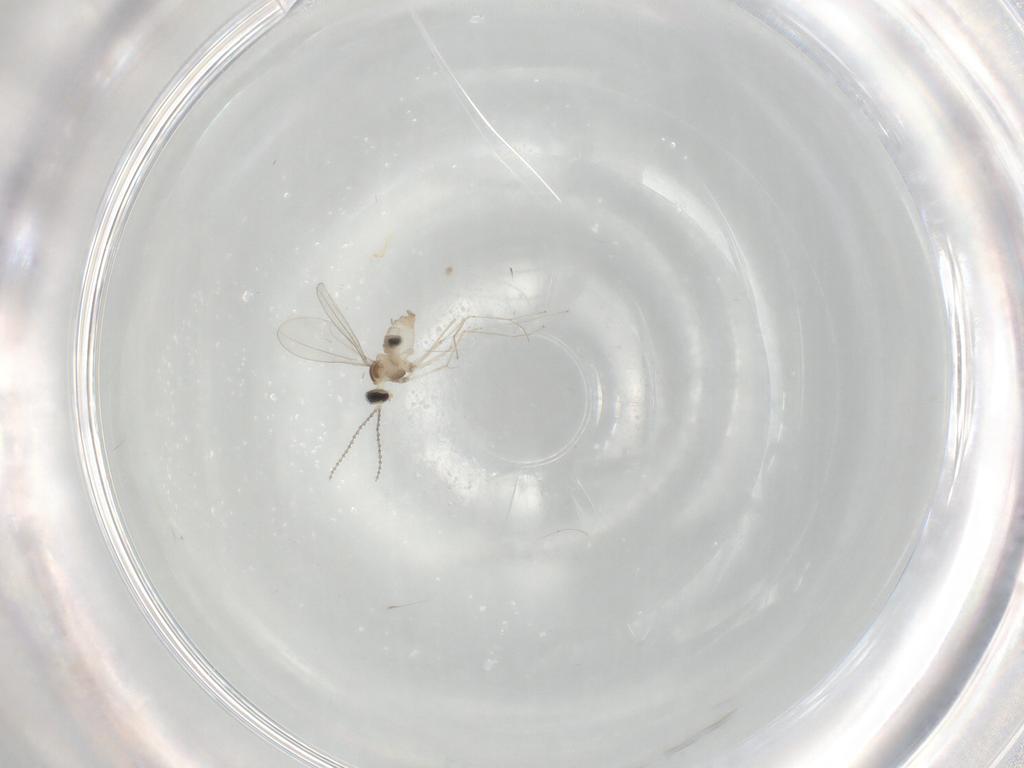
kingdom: Animalia
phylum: Arthropoda
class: Insecta
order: Diptera
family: Cecidomyiidae
